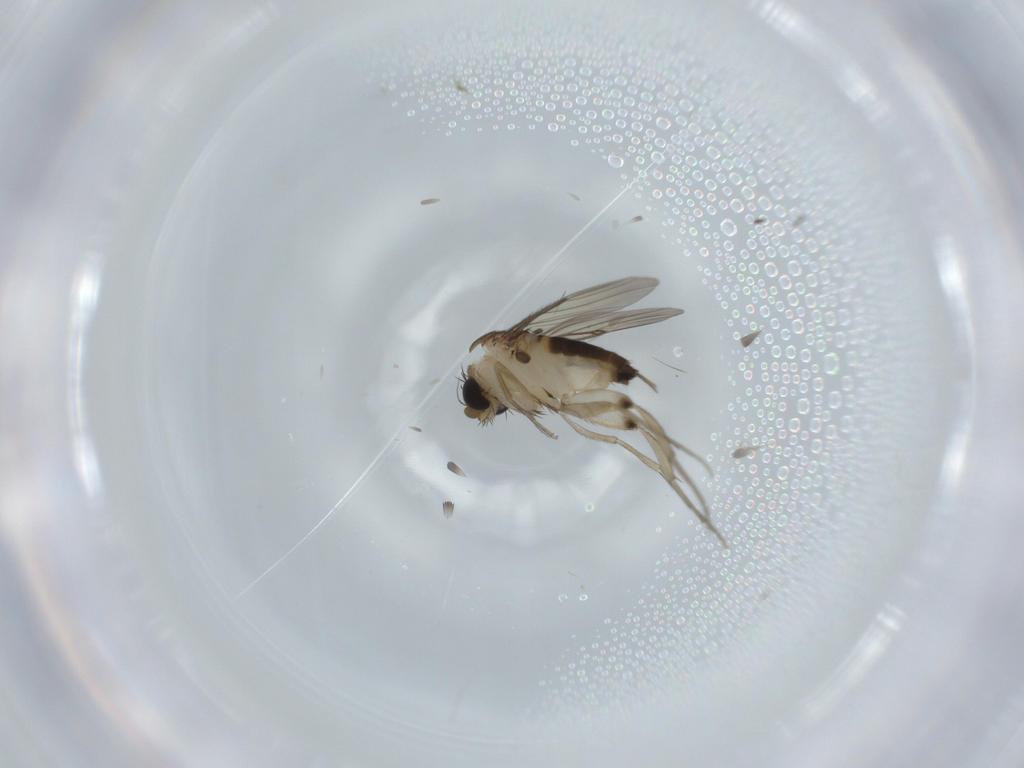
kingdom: Animalia
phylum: Arthropoda
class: Insecta
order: Diptera
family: Phoridae
